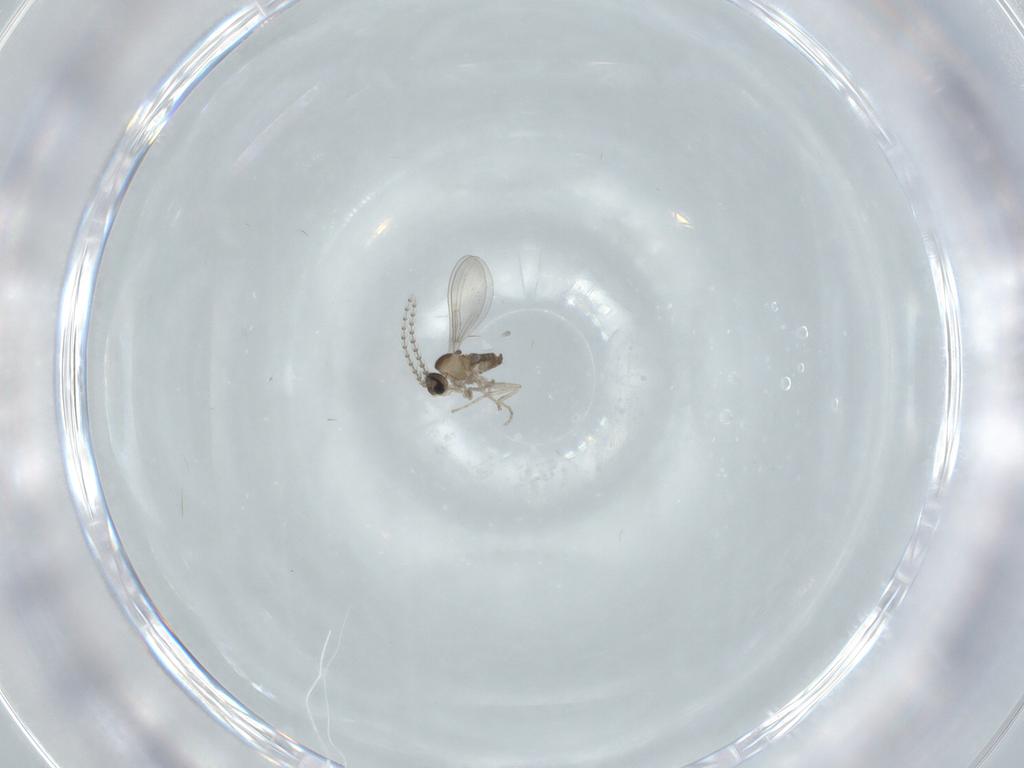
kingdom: Animalia
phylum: Arthropoda
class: Insecta
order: Diptera
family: Cecidomyiidae
